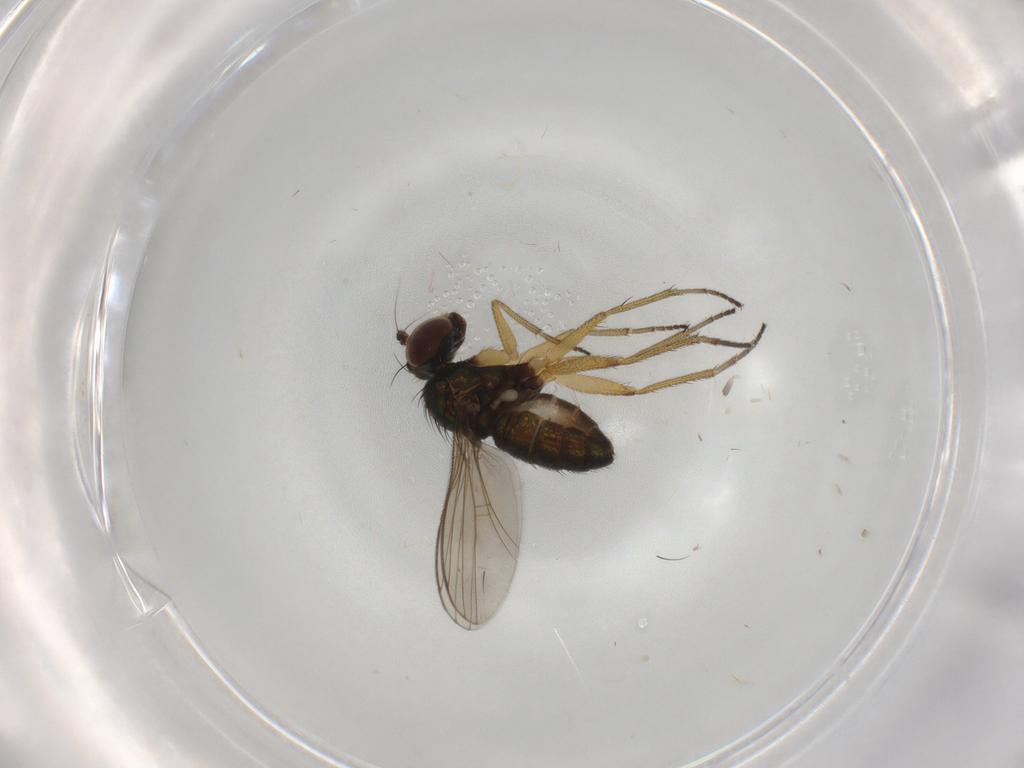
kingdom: Animalia
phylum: Arthropoda
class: Insecta
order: Diptera
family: Dolichopodidae
